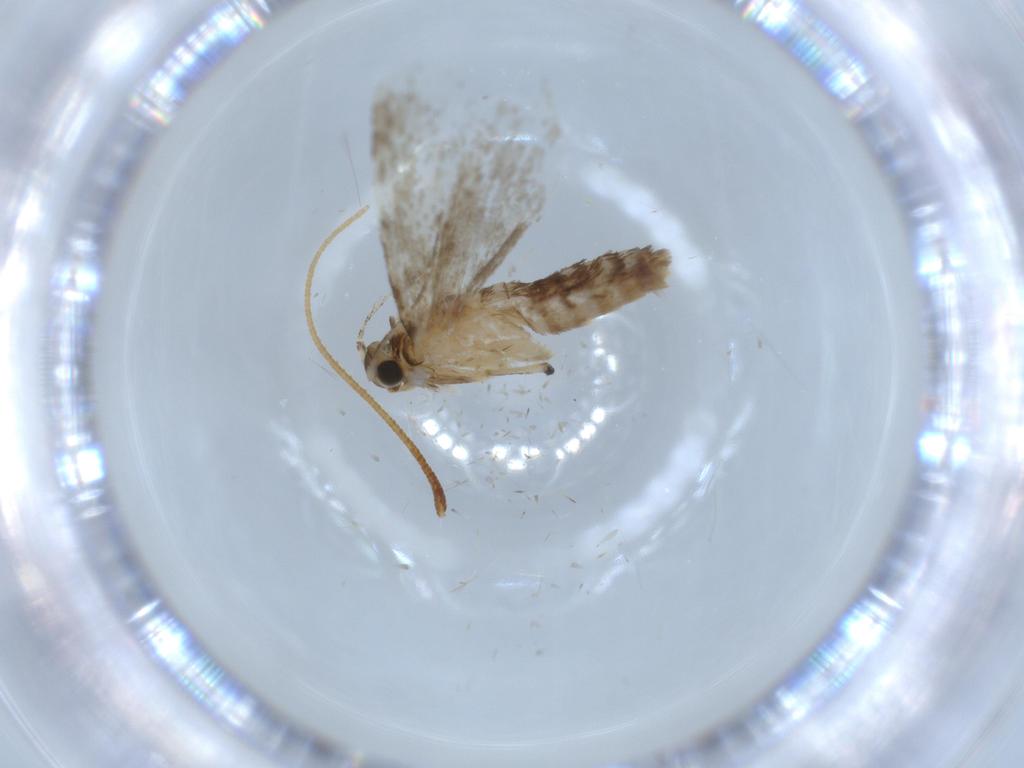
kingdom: Animalia
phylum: Arthropoda
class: Insecta
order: Lepidoptera
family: Tineidae
